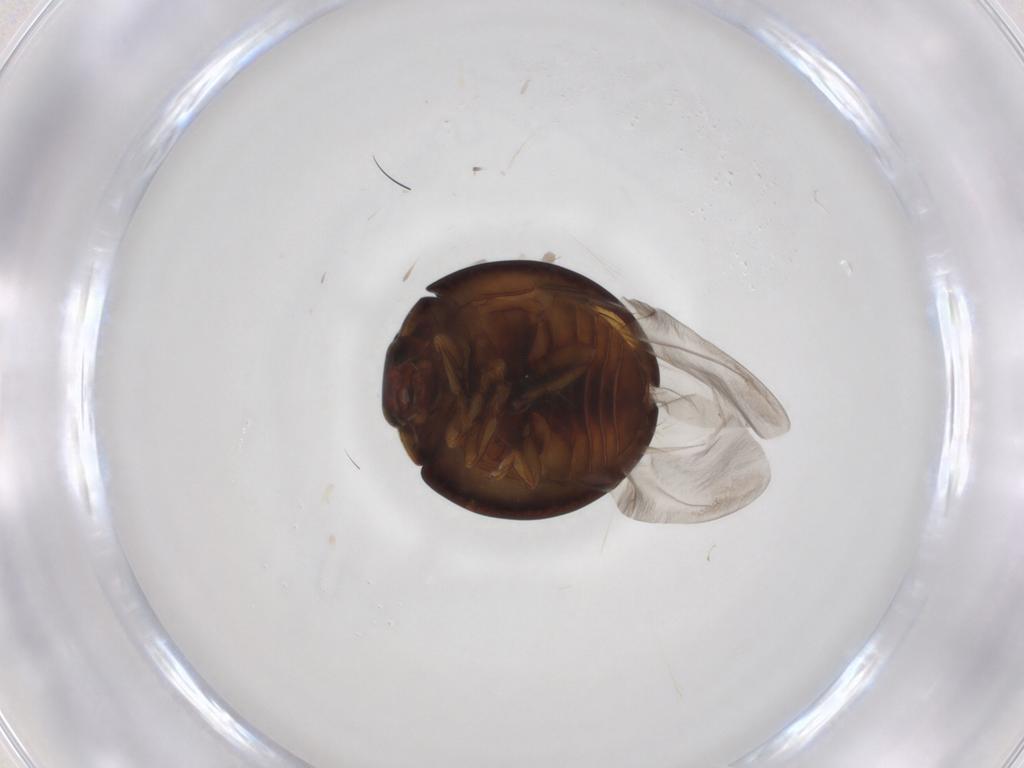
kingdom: Animalia
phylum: Arthropoda
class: Insecta
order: Coleoptera
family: Coccinellidae
